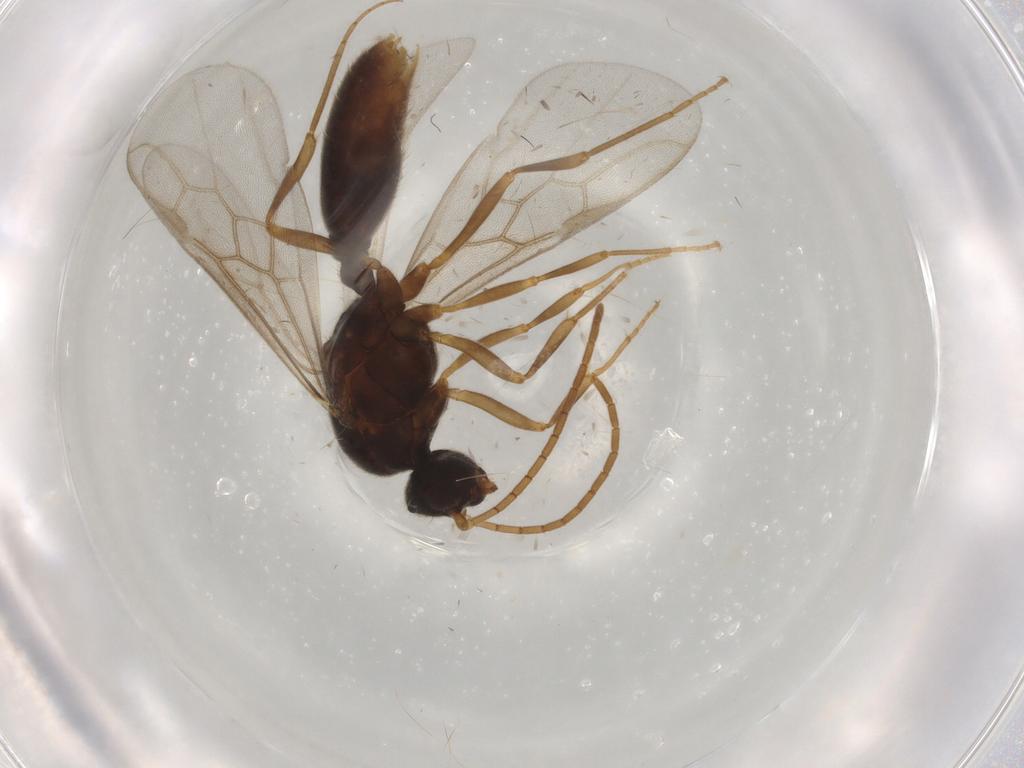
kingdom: Animalia
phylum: Arthropoda
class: Insecta
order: Hymenoptera
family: Formicidae
